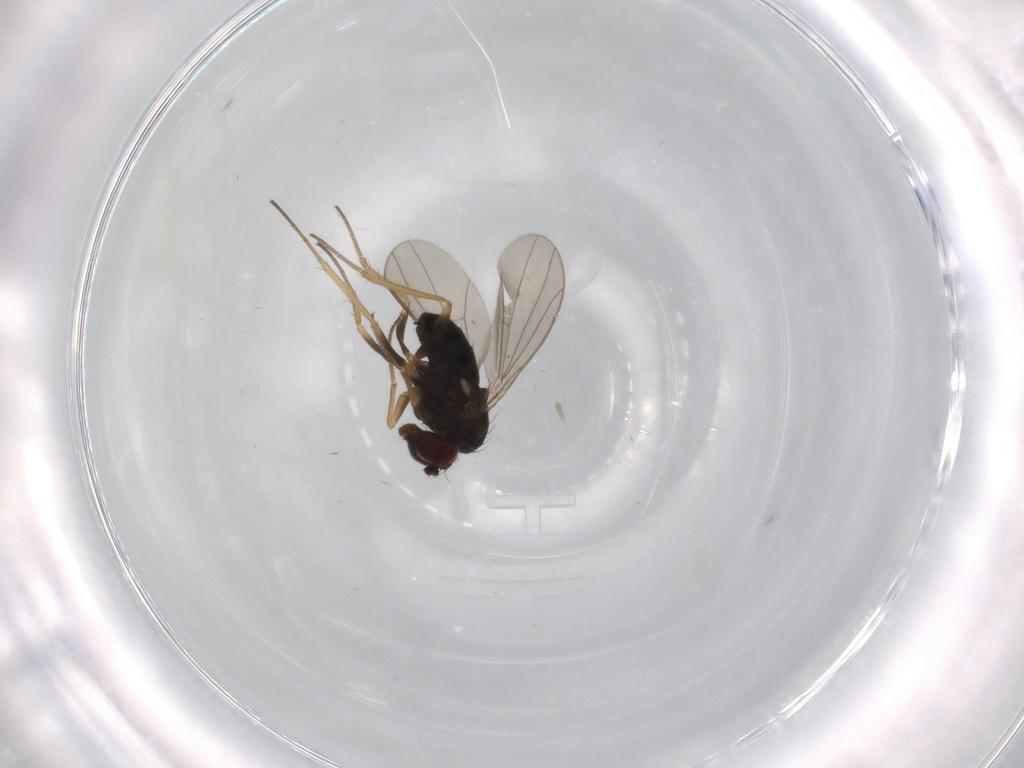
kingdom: Animalia
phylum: Arthropoda
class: Insecta
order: Diptera
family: Dolichopodidae
